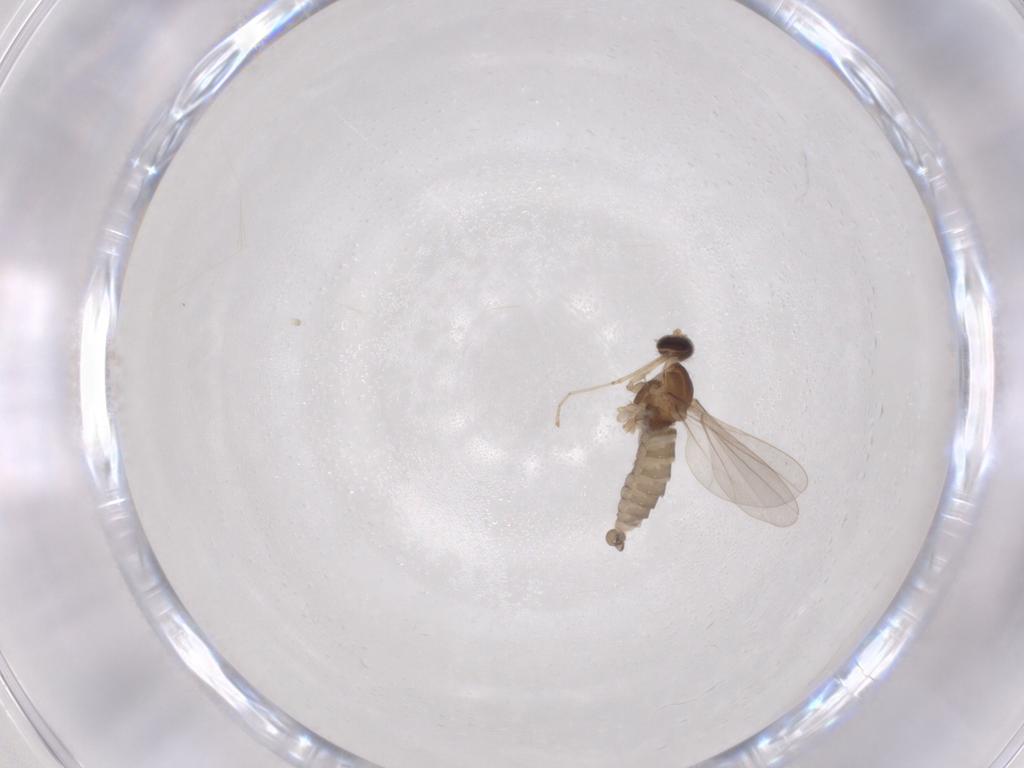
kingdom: Animalia
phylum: Arthropoda
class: Insecta
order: Diptera
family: Cecidomyiidae
